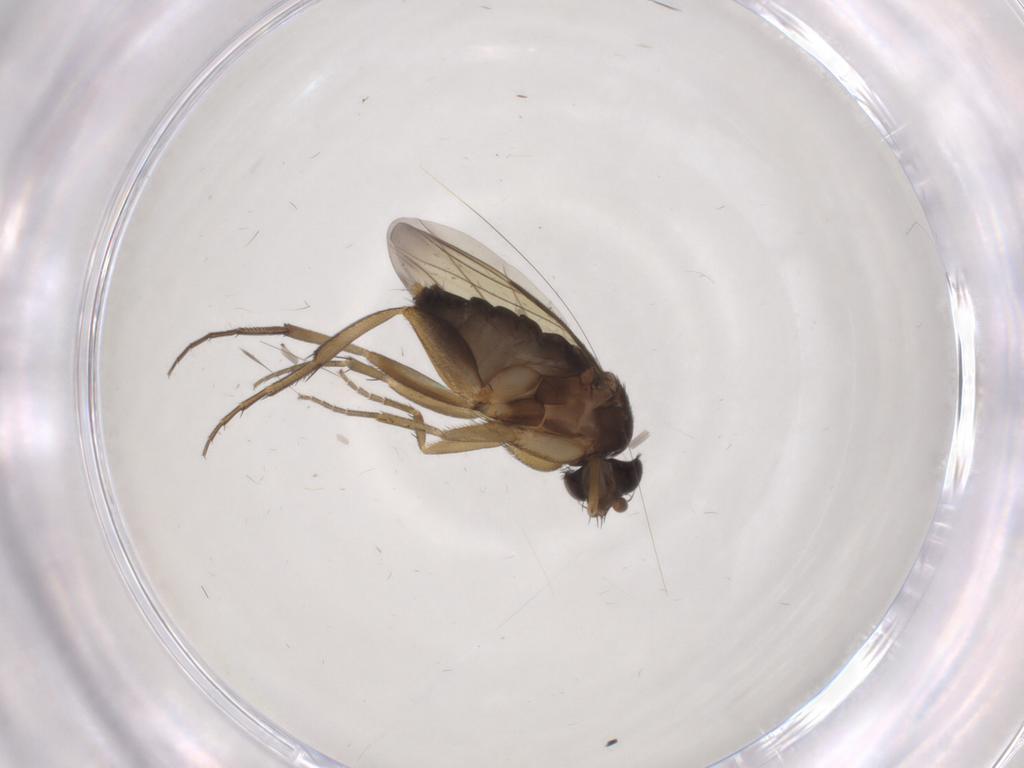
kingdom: Animalia
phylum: Arthropoda
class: Insecta
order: Diptera
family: Phoridae
